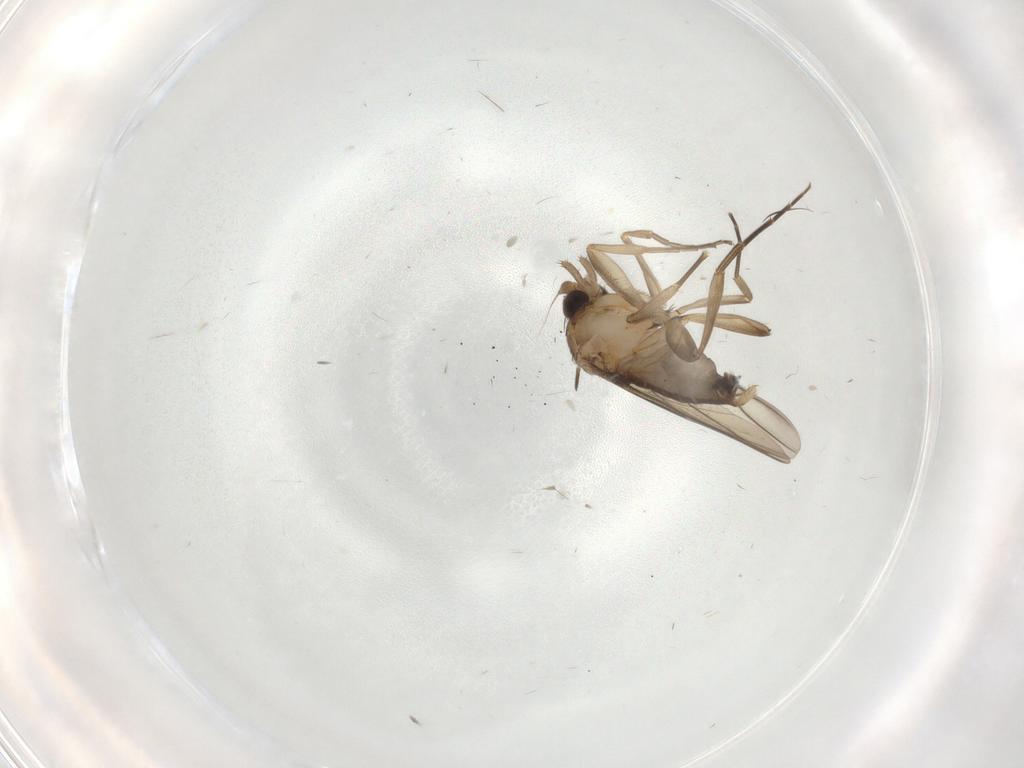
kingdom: Animalia
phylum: Arthropoda
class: Insecta
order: Diptera
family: Phoridae
